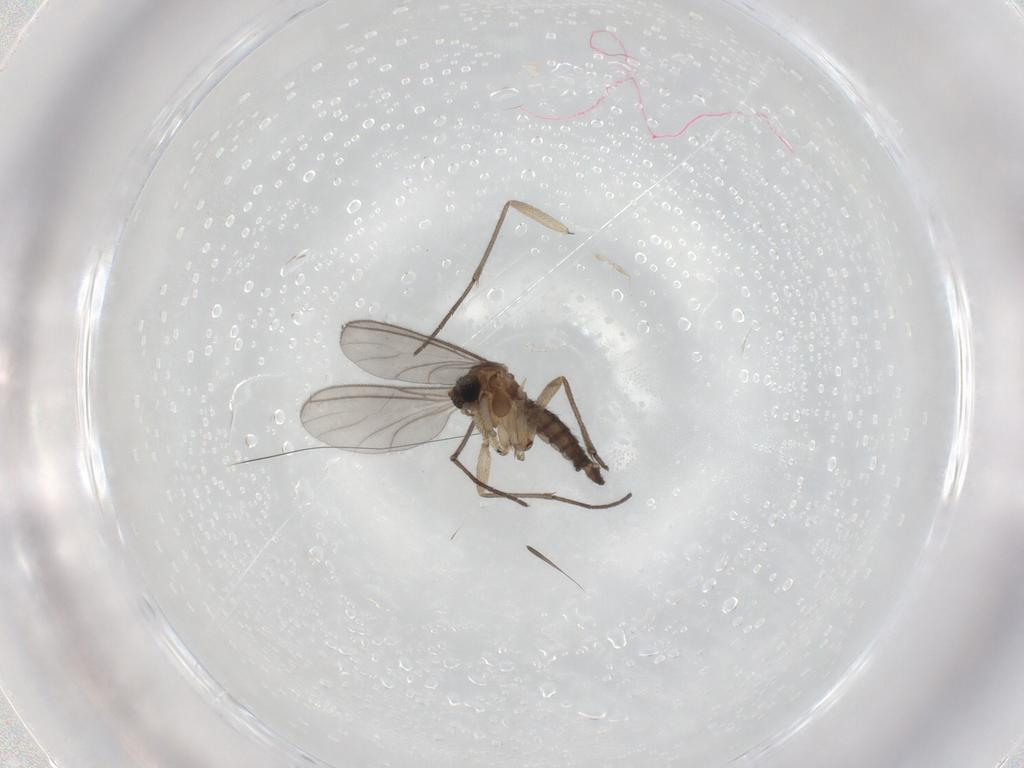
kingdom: Animalia
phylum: Arthropoda
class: Insecta
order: Diptera
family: Sciaridae
